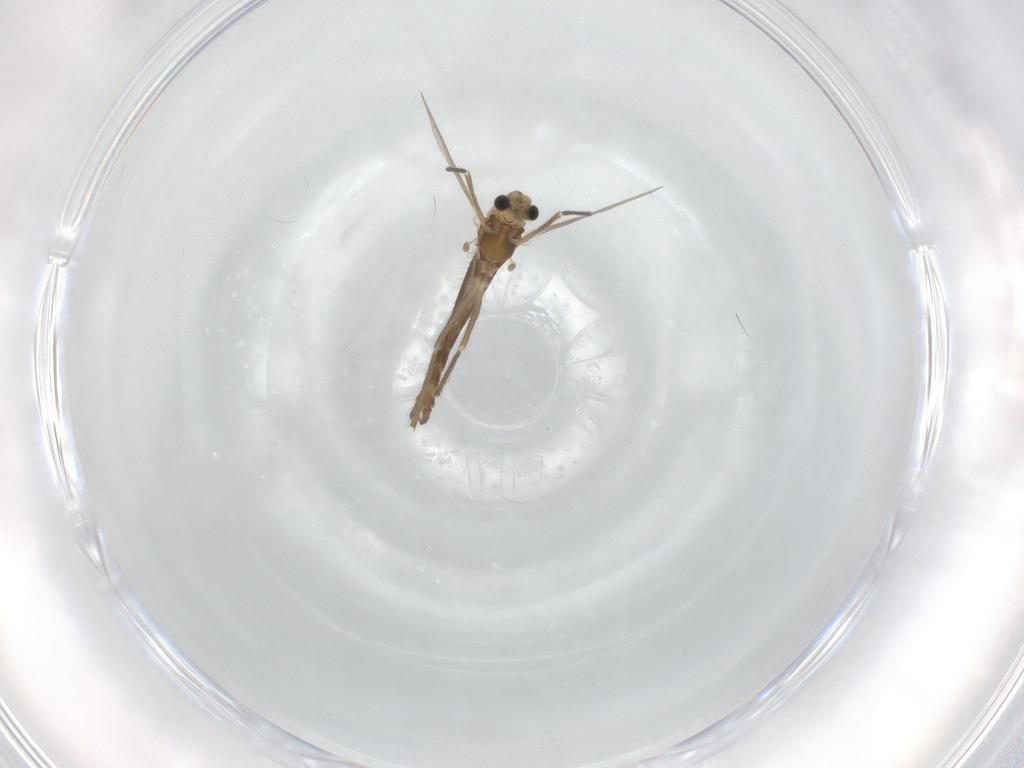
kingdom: Animalia
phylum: Arthropoda
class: Insecta
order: Diptera
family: Chironomidae
